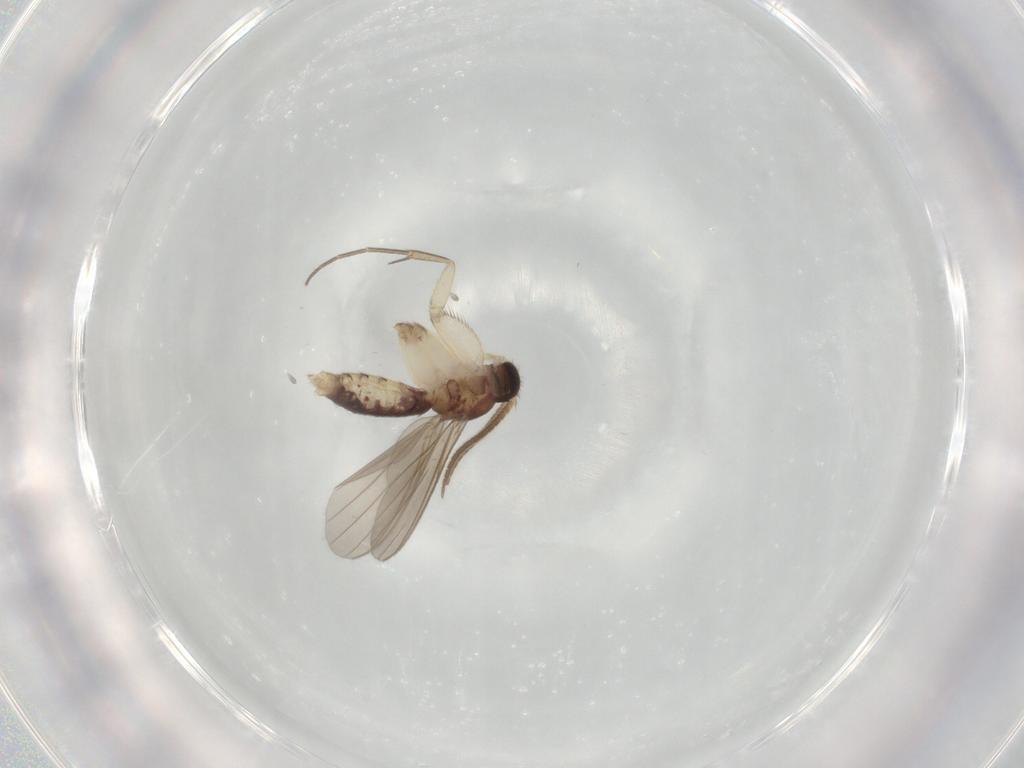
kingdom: Animalia
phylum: Arthropoda
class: Insecta
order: Diptera
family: Mycetophilidae
